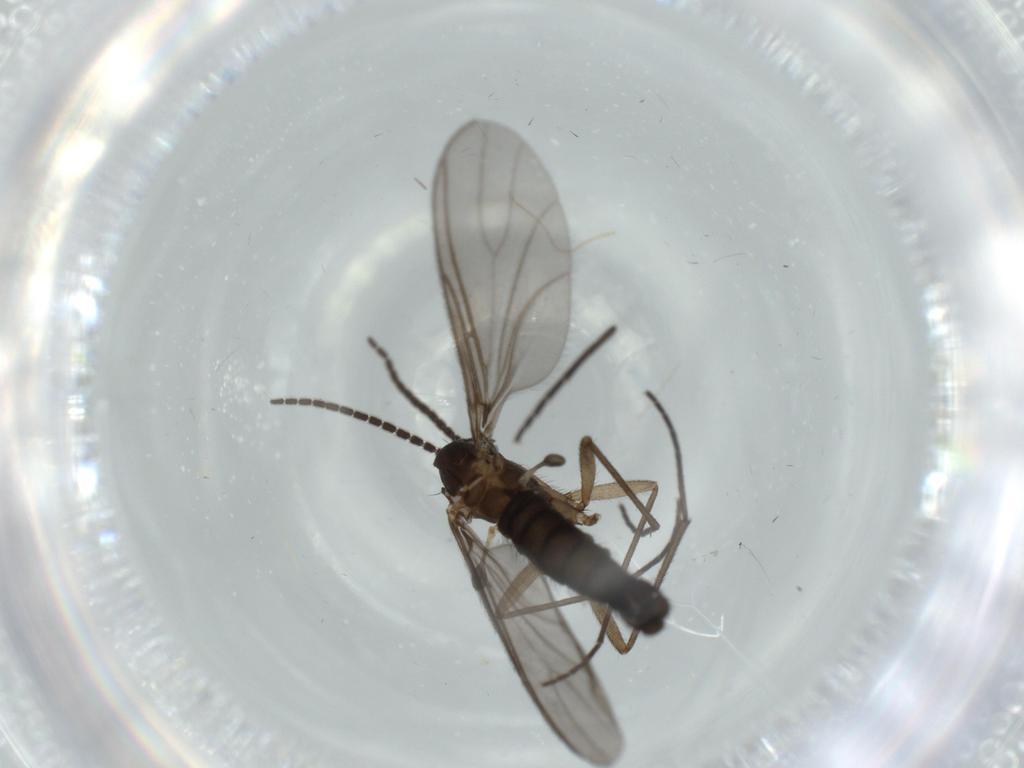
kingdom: Animalia
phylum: Arthropoda
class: Insecta
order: Diptera
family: Sciaridae
